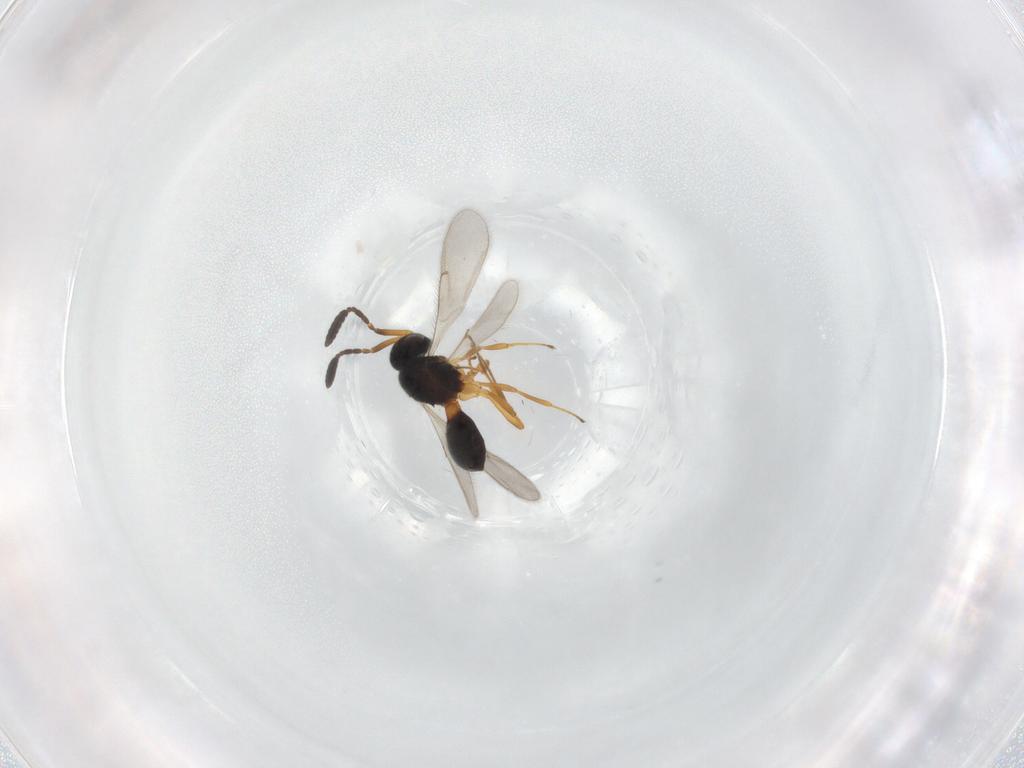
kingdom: Animalia
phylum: Arthropoda
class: Insecta
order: Hymenoptera
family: Scelionidae
